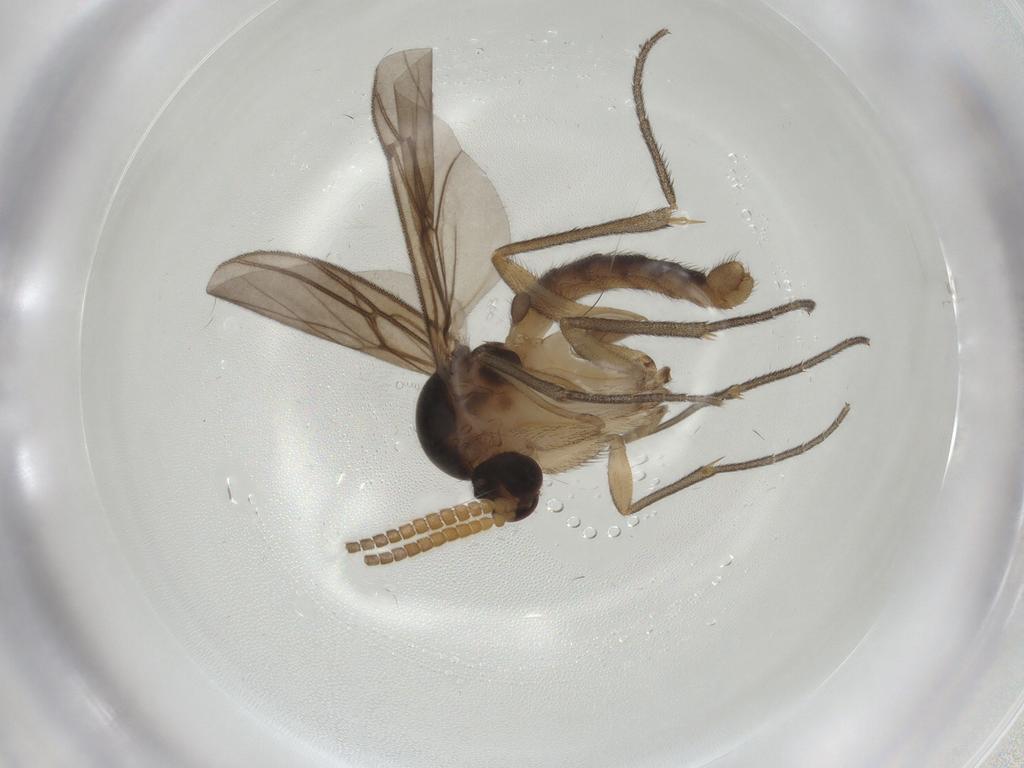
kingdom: Animalia
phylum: Arthropoda
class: Insecta
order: Diptera
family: Mycetophilidae
